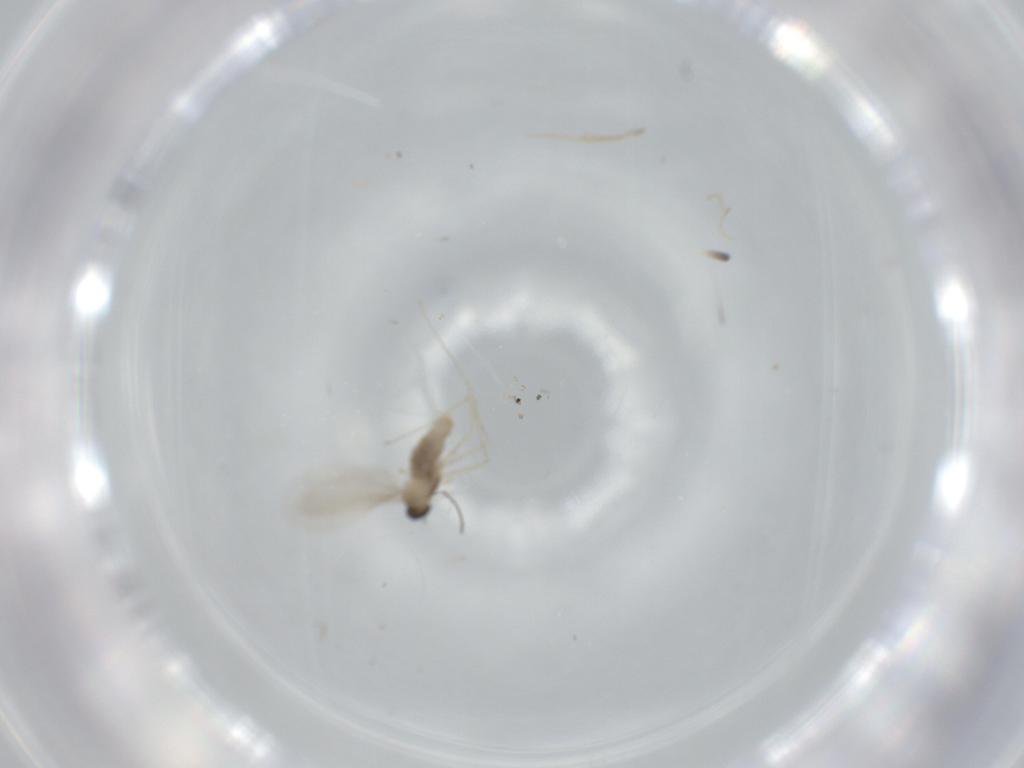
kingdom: Animalia
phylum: Arthropoda
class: Insecta
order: Diptera
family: Cecidomyiidae
